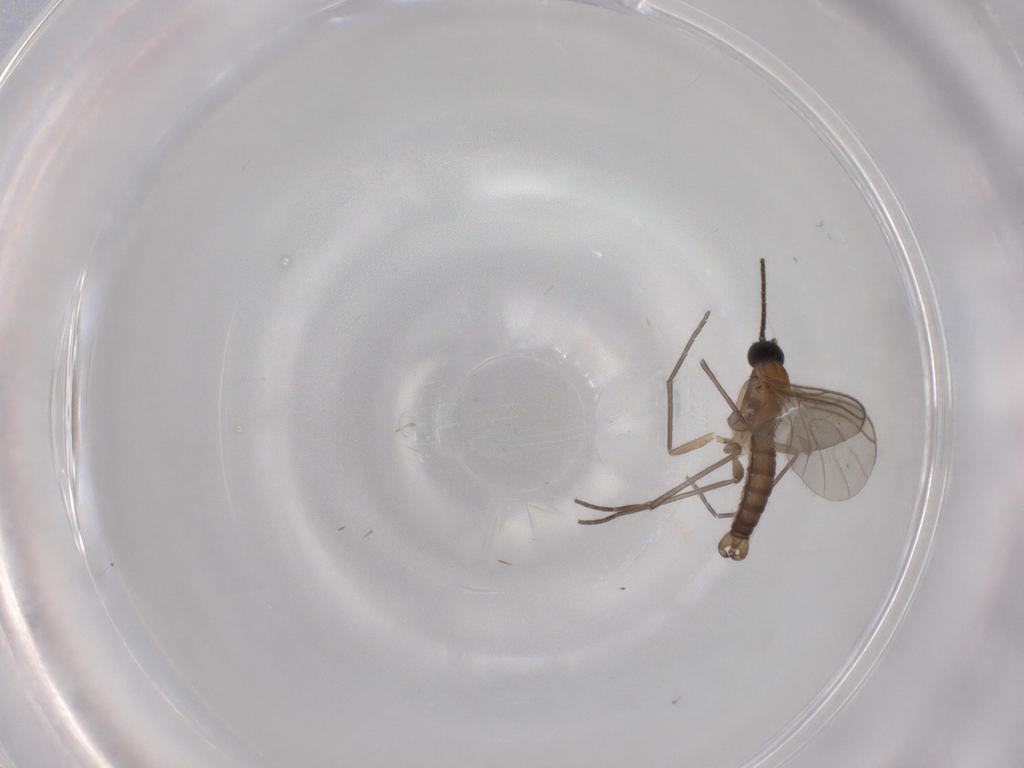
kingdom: Animalia
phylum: Arthropoda
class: Insecta
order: Diptera
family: Sciaridae
